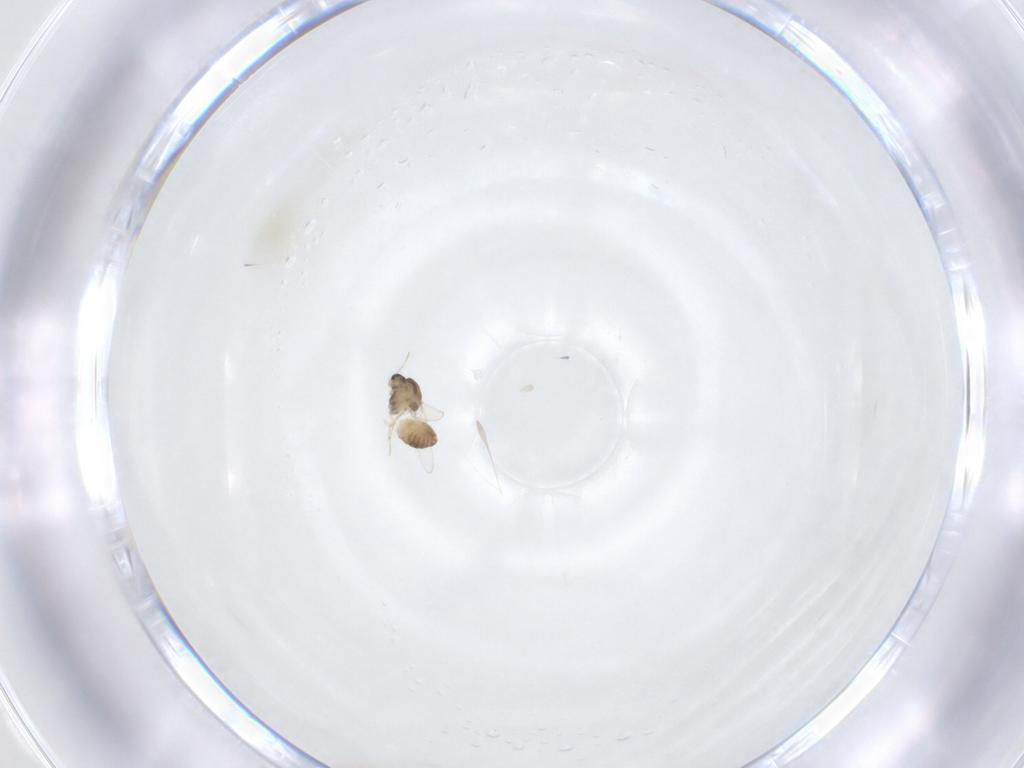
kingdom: Animalia
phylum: Arthropoda
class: Insecta
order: Diptera
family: Chironomidae
